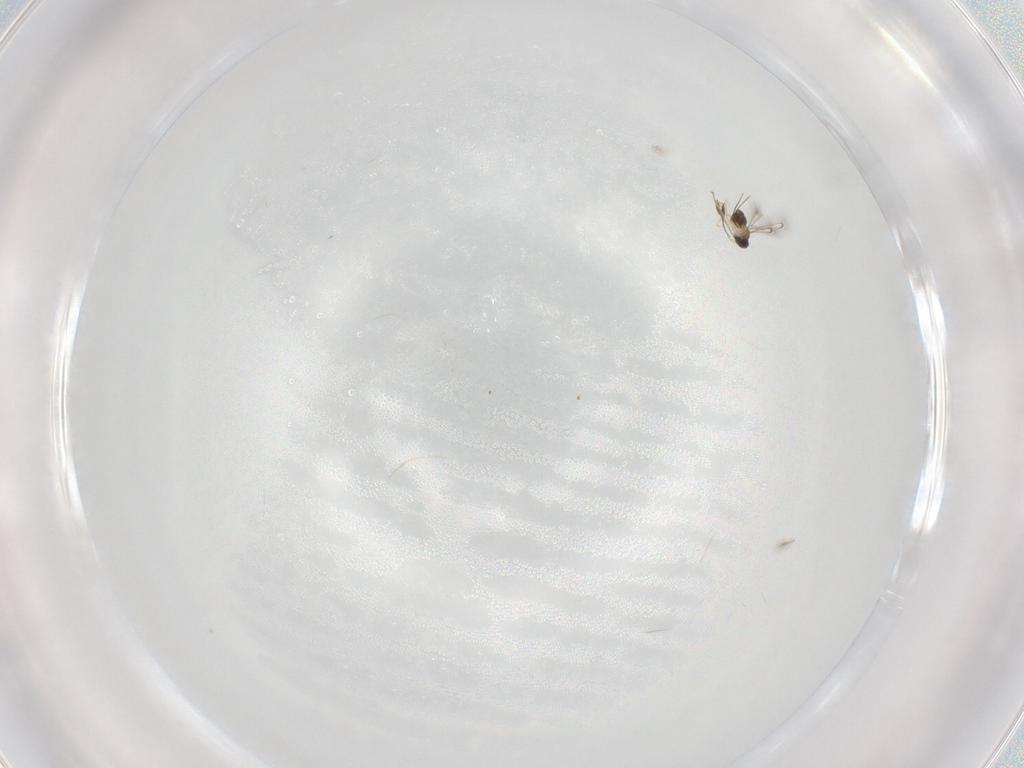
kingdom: Animalia
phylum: Arthropoda
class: Insecta
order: Hymenoptera
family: Mymaridae
